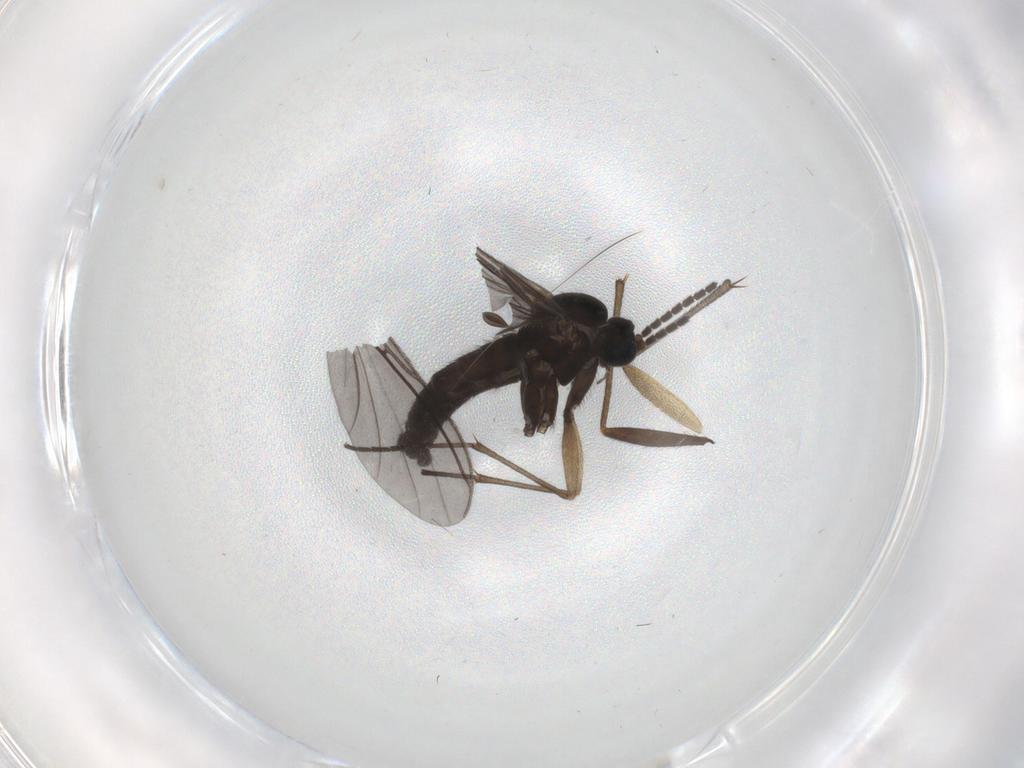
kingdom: Animalia
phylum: Arthropoda
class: Insecta
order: Diptera
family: Sciaridae
